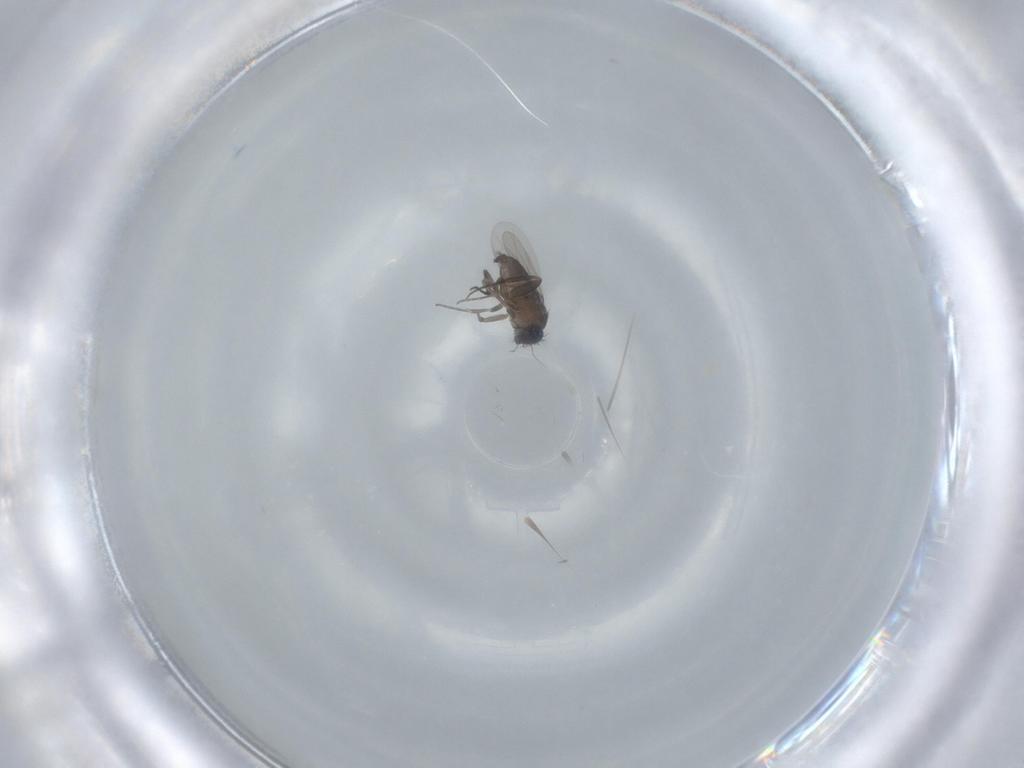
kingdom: Animalia
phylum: Arthropoda
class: Insecta
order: Diptera
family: Phoridae
